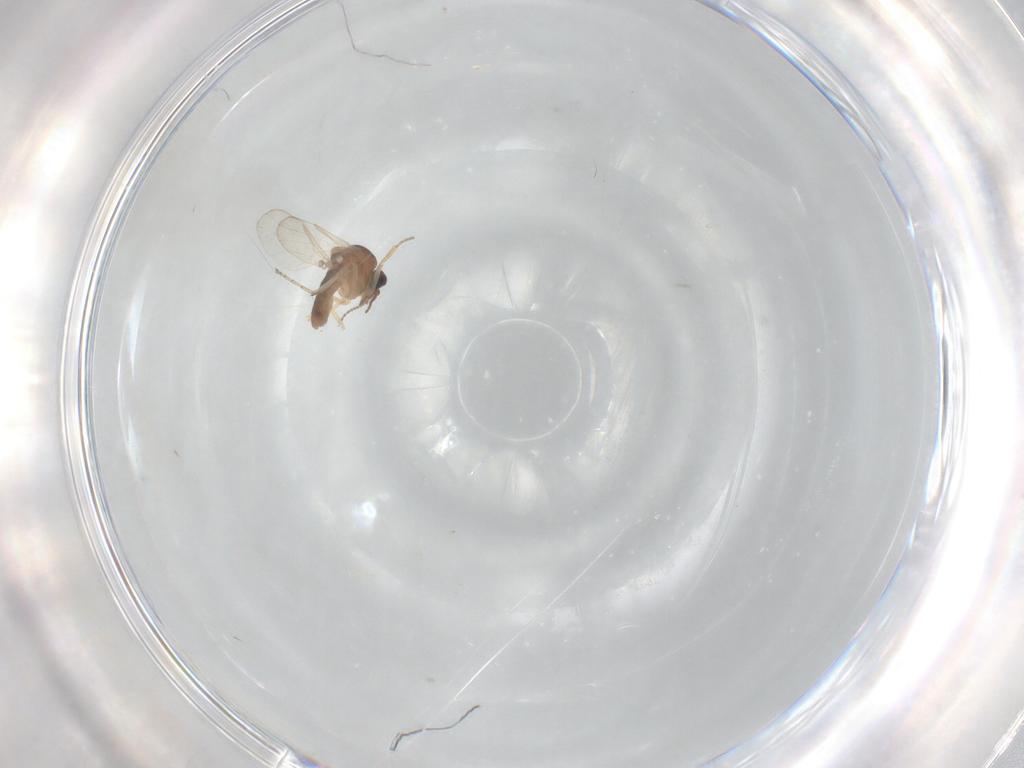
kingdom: Animalia
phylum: Arthropoda
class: Insecta
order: Diptera
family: Ceratopogonidae
